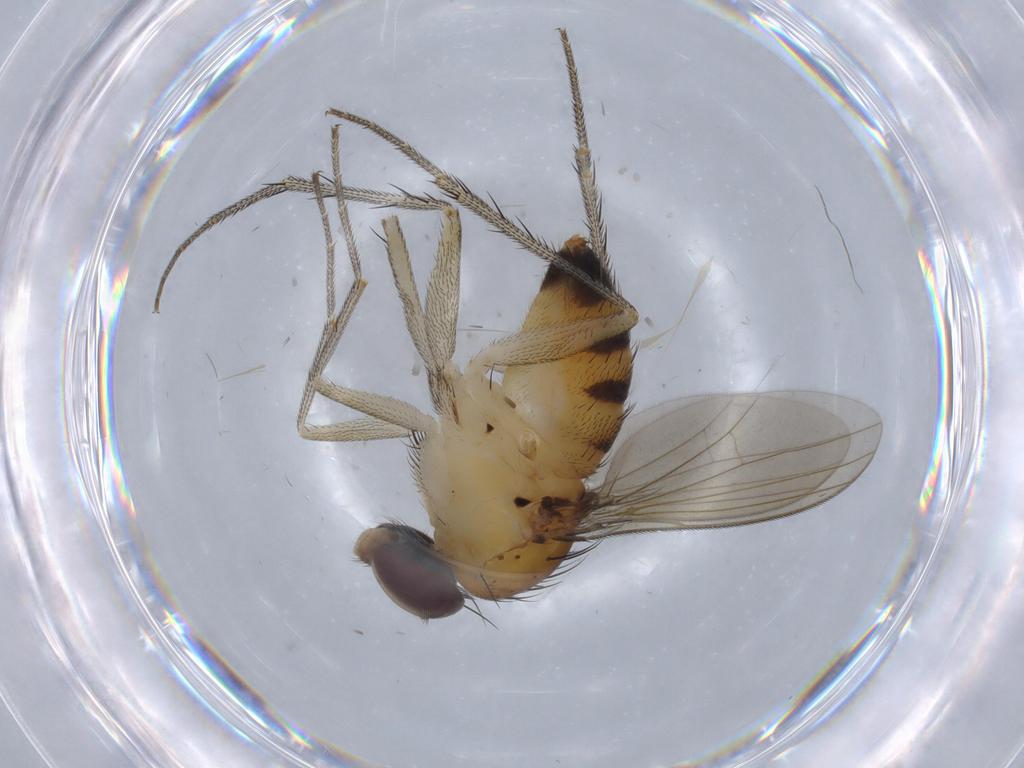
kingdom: Animalia
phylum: Arthropoda
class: Insecta
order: Diptera
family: Dolichopodidae
